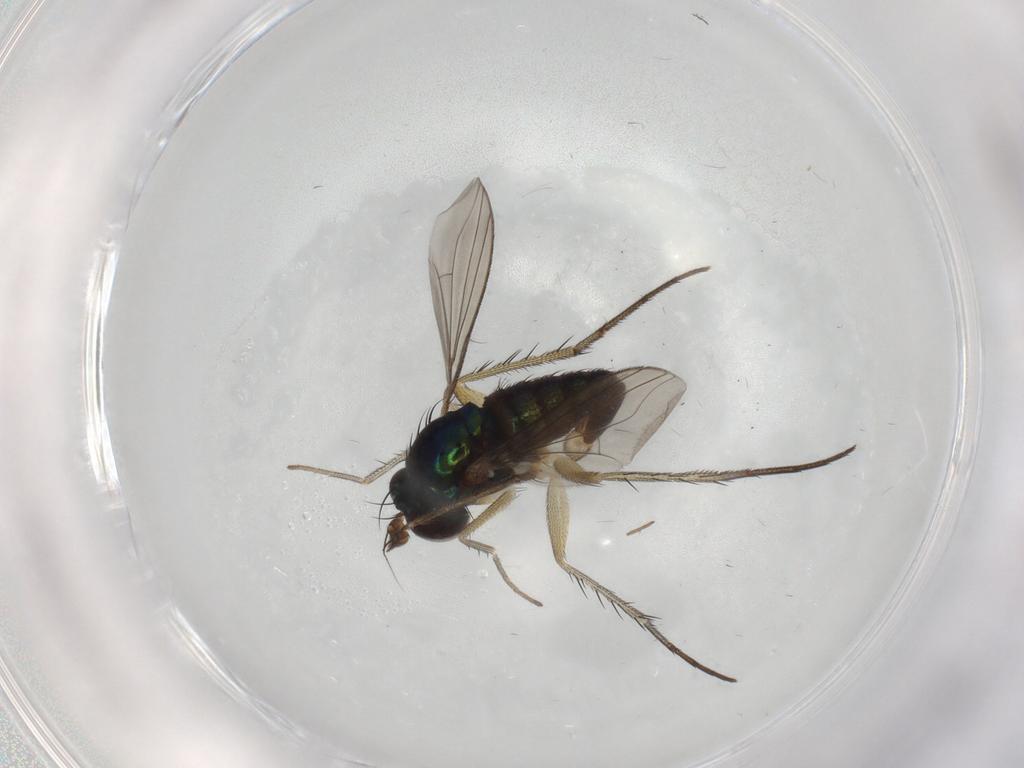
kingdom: Animalia
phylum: Arthropoda
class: Insecta
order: Diptera
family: Dolichopodidae
